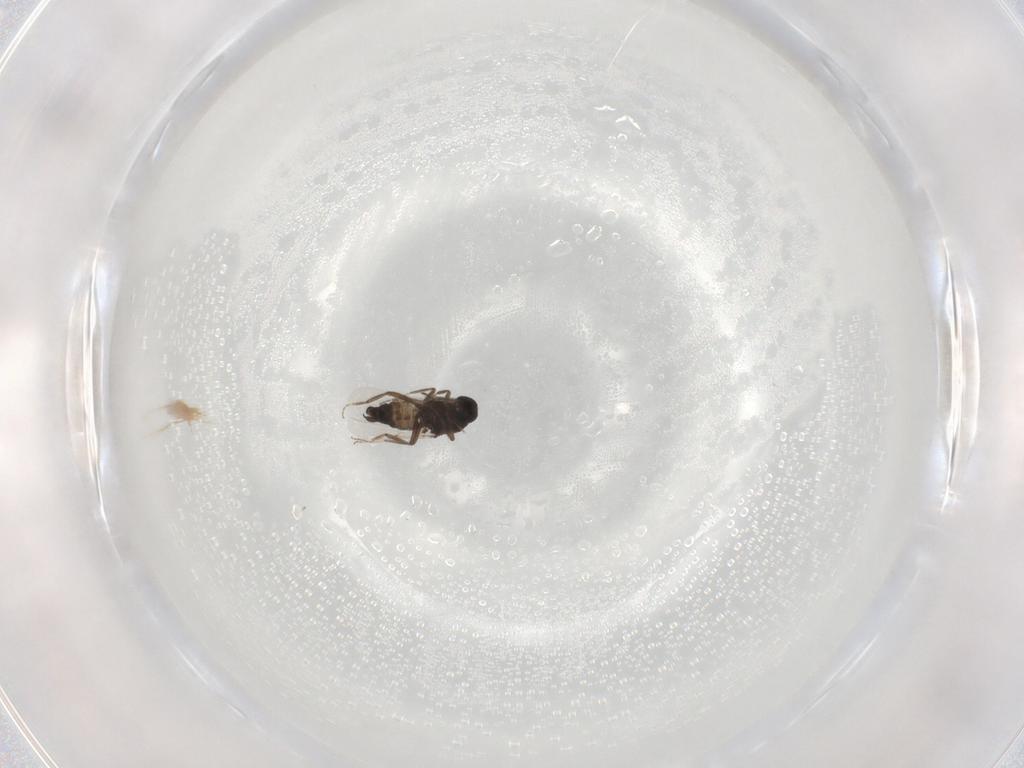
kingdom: Animalia
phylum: Arthropoda
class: Insecta
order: Diptera
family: Ceratopogonidae
